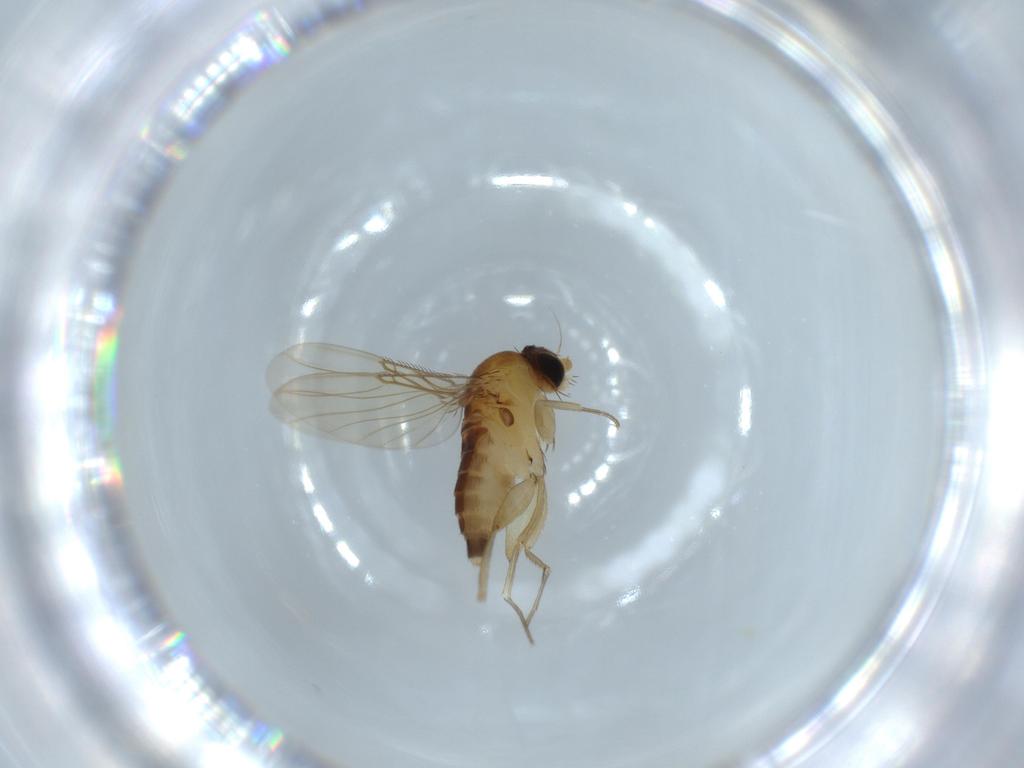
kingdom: Animalia
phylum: Arthropoda
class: Insecta
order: Diptera
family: Phoridae
